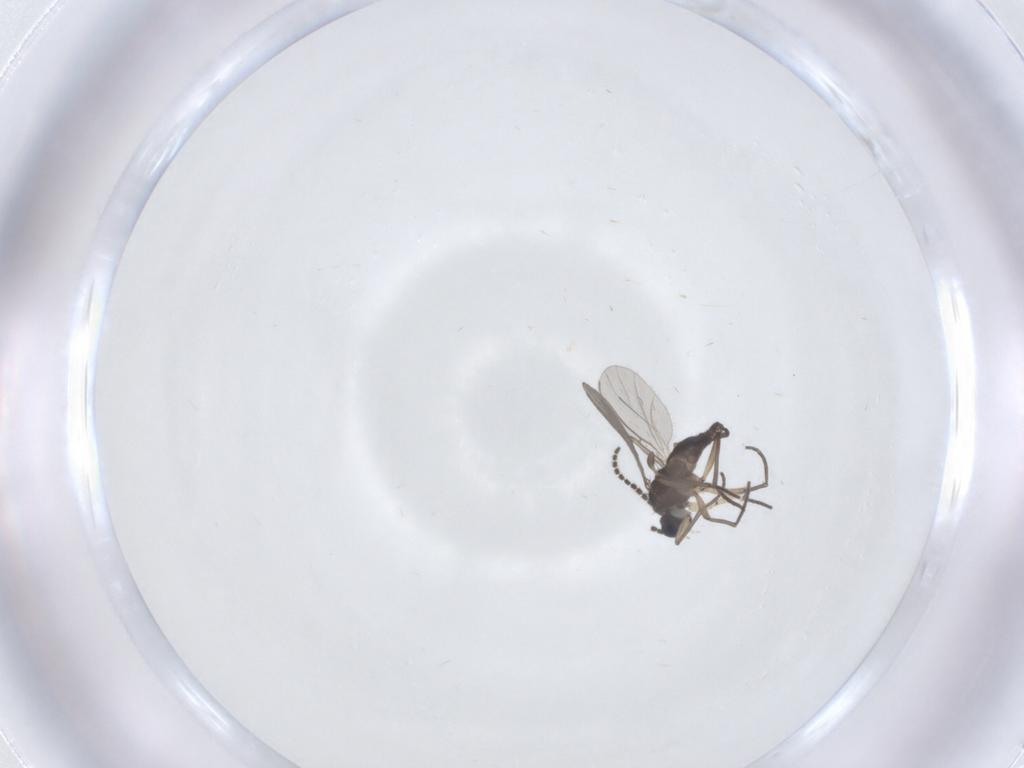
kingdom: Animalia
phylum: Arthropoda
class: Insecta
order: Diptera
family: Sciaridae
